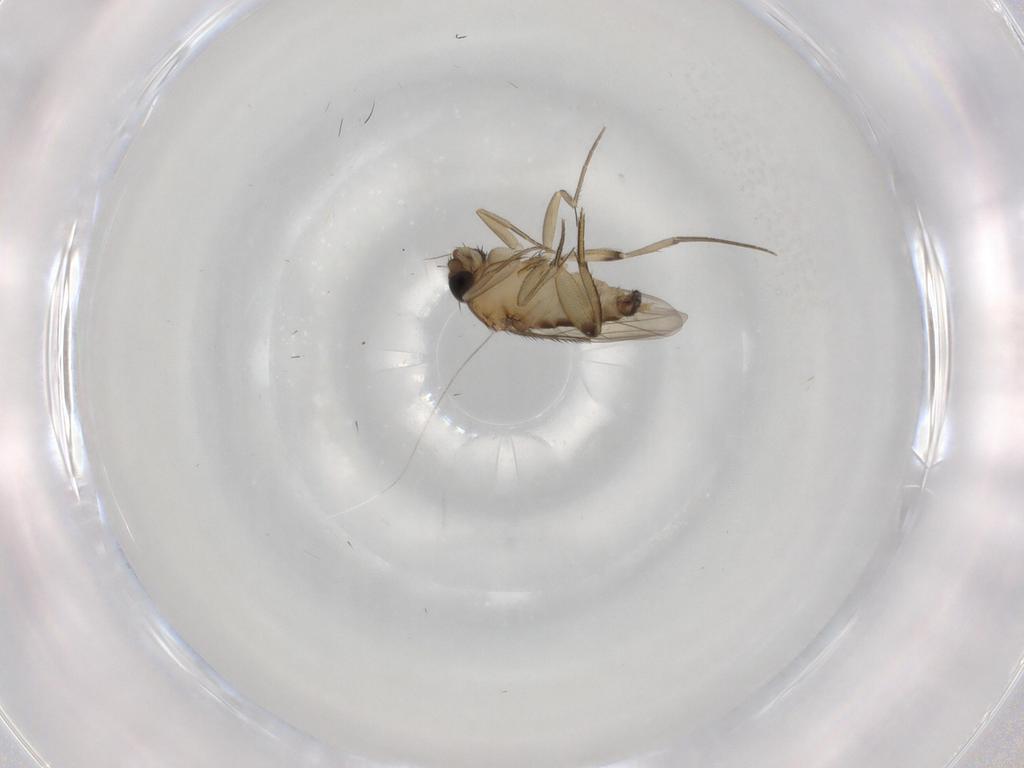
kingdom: Animalia
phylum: Arthropoda
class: Insecta
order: Diptera
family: Phoridae
